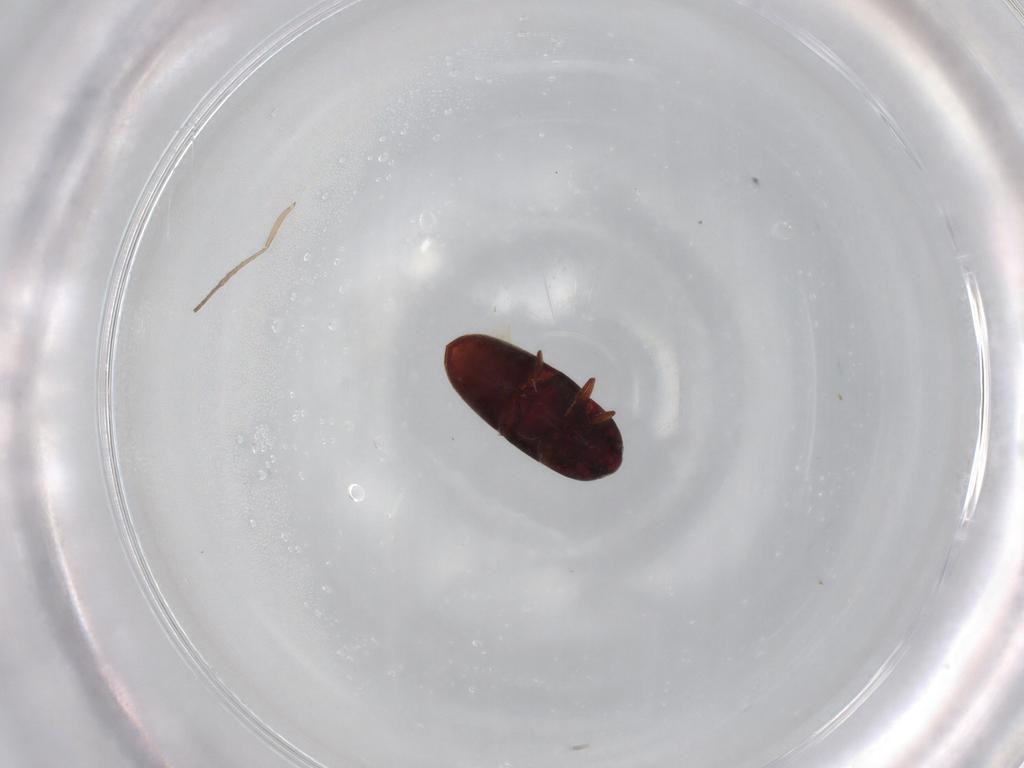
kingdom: Animalia
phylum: Arthropoda
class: Insecta
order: Coleoptera
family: Throscidae
